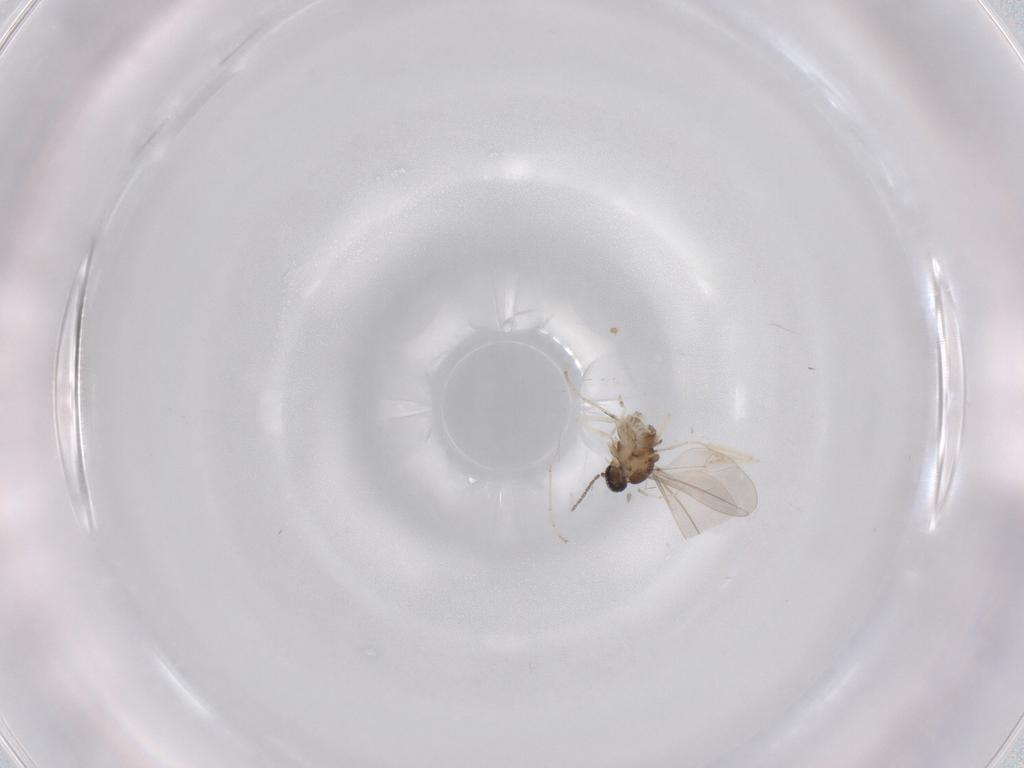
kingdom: Animalia
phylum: Arthropoda
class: Insecta
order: Diptera
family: Cecidomyiidae
